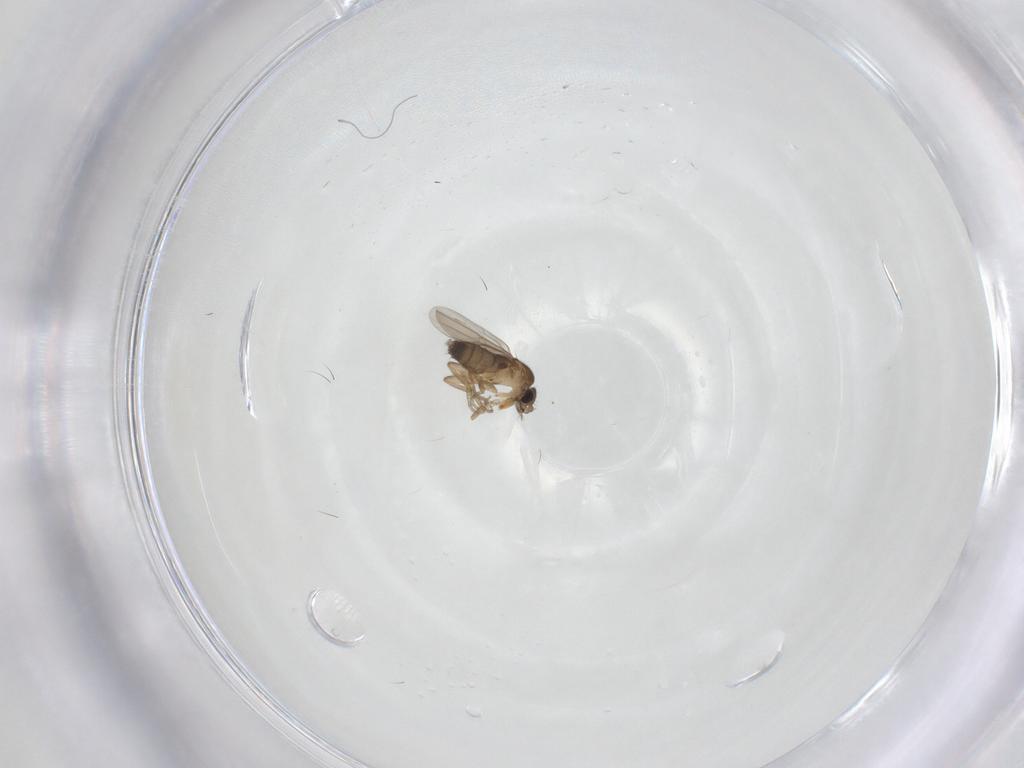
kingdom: Animalia
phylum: Arthropoda
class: Insecta
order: Diptera
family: Phoridae
